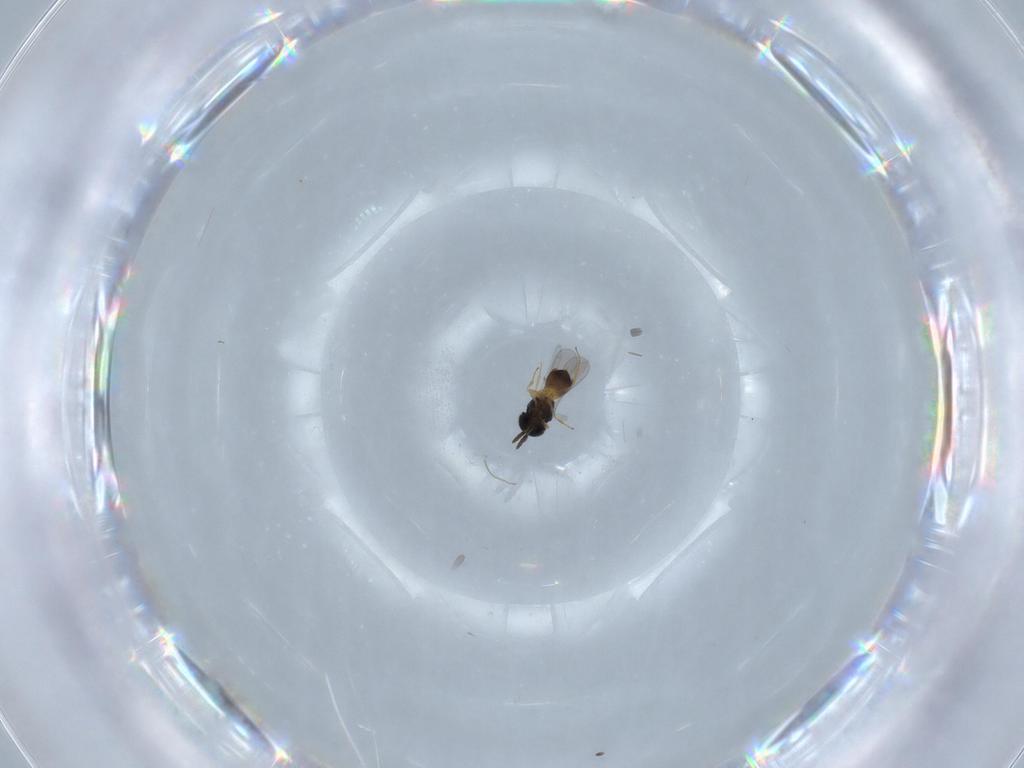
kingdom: Animalia
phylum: Arthropoda
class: Insecta
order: Hymenoptera
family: Scelionidae
